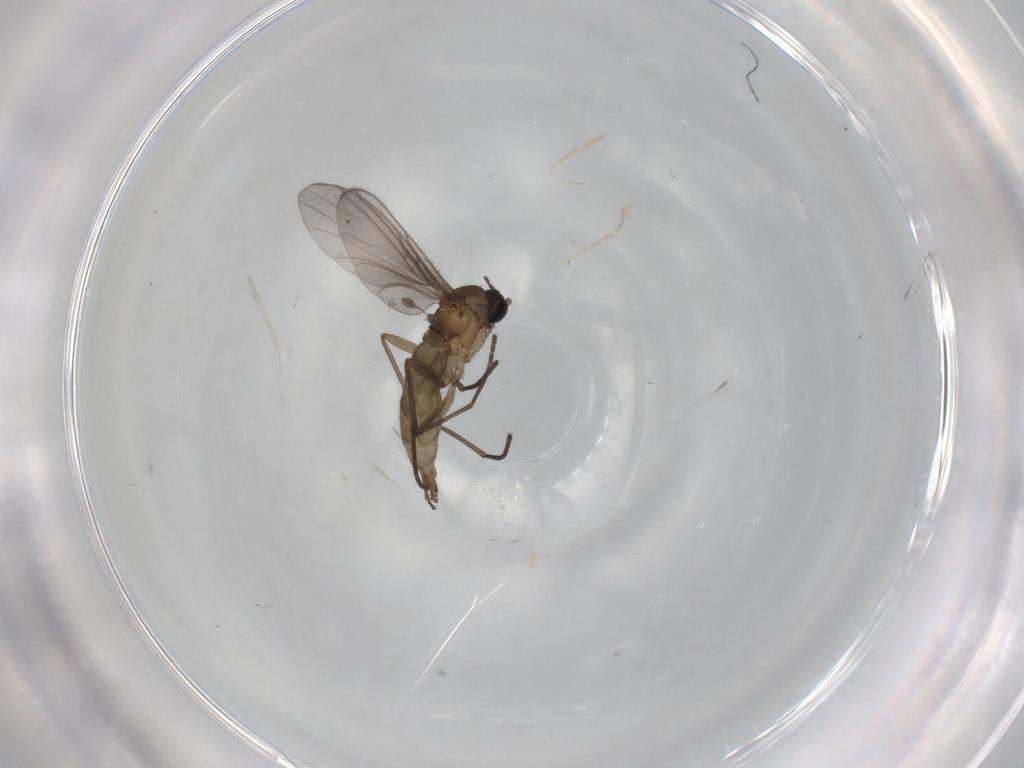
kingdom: Animalia
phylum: Arthropoda
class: Insecta
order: Diptera
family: Sciaridae
